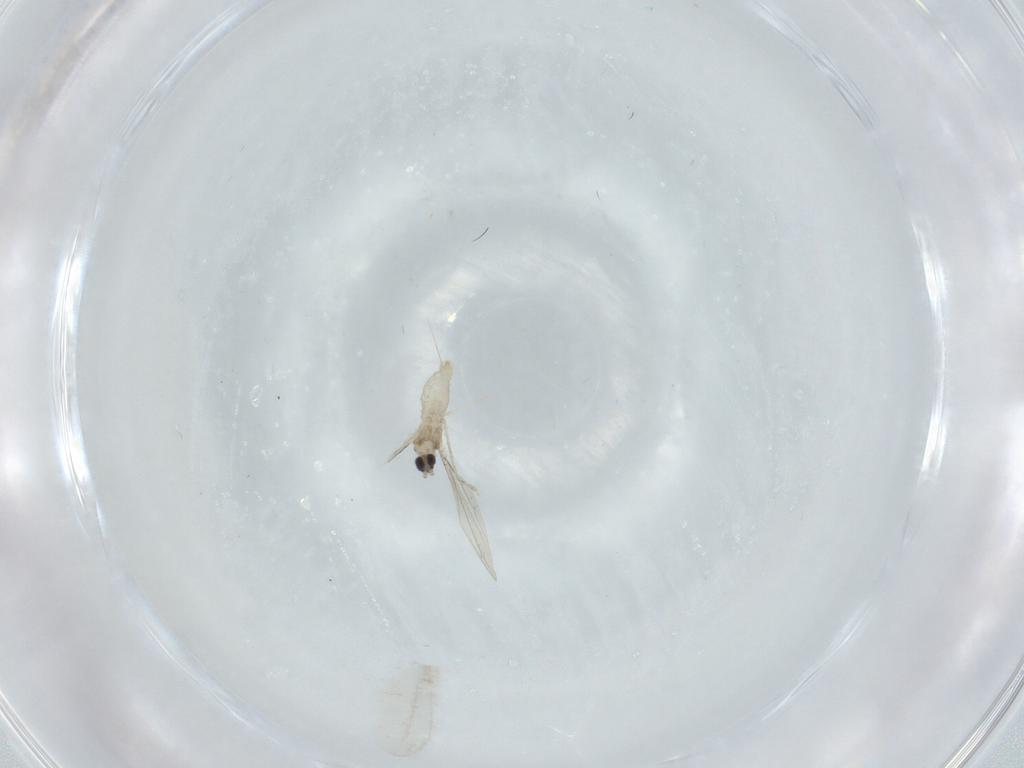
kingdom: Animalia
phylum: Arthropoda
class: Insecta
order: Diptera
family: Cecidomyiidae
